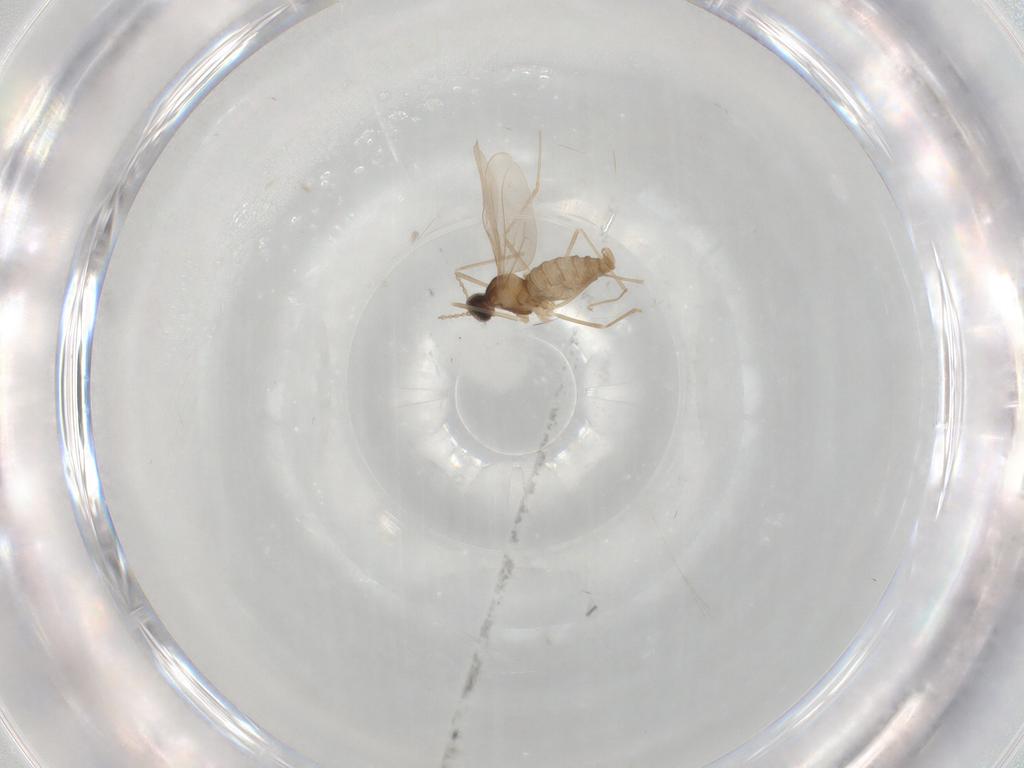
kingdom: Animalia
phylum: Arthropoda
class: Insecta
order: Diptera
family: Cecidomyiidae
